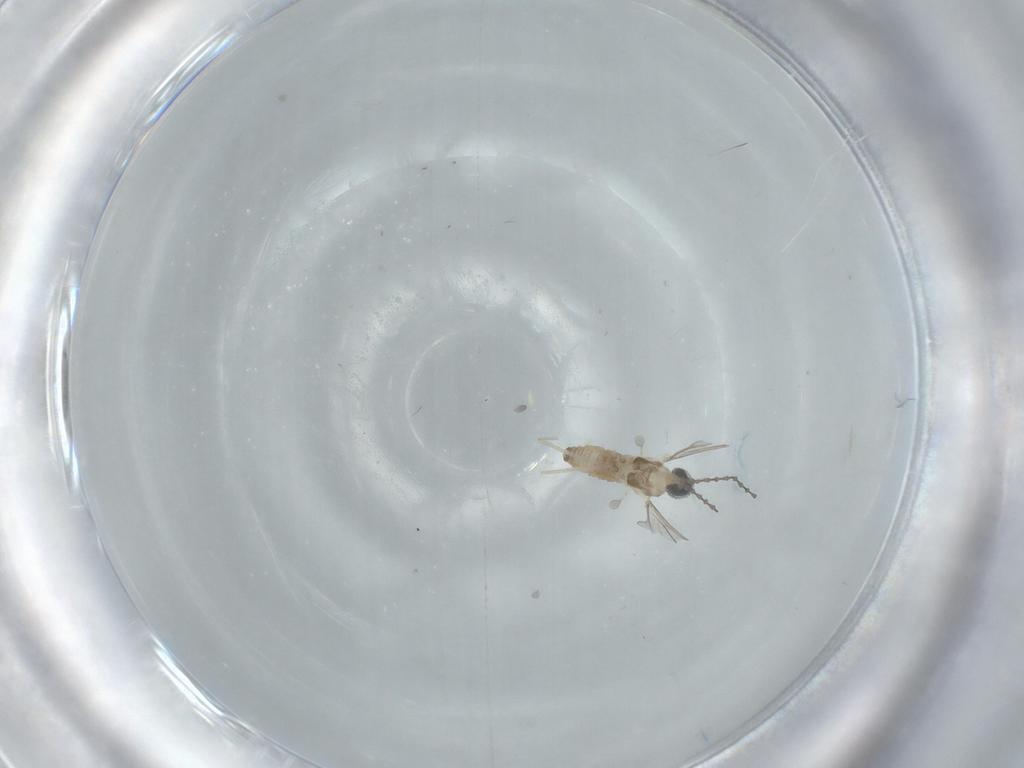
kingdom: Animalia
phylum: Arthropoda
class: Insecta
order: Diptera
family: Cecidomyiidae
